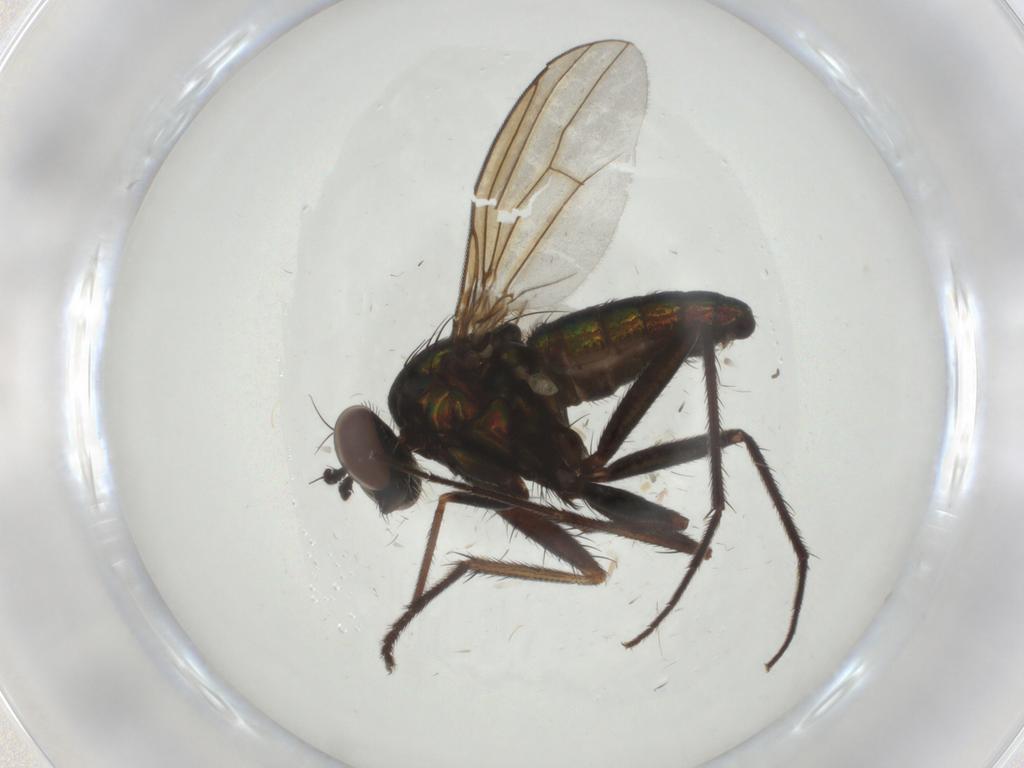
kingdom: Animalia
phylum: Arthropoda
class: Insecta
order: Diptera
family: Dolichopodidae
